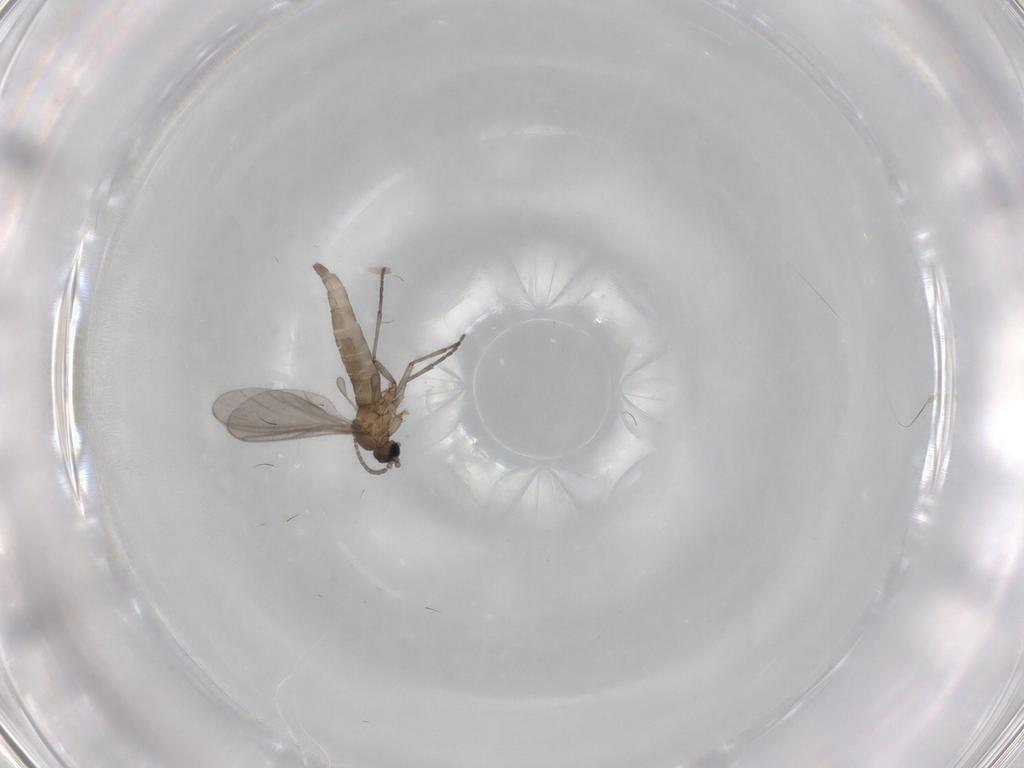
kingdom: Animalia
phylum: Arthropoda
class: Insecta
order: Diptera
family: Sciaridae
